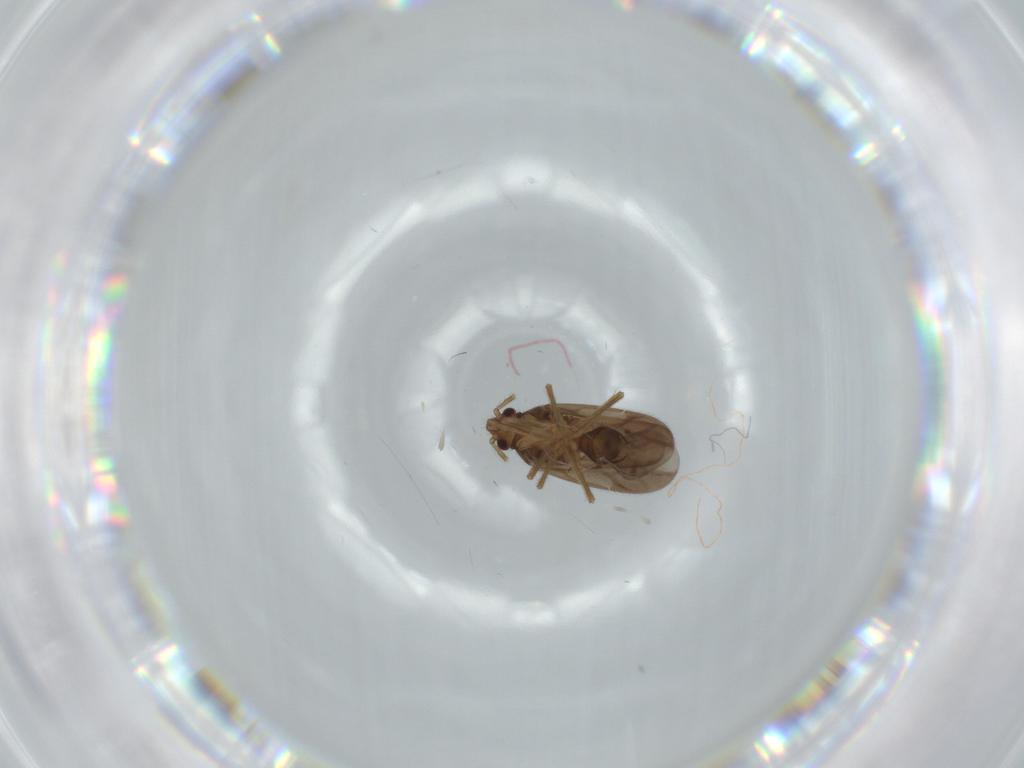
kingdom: Animalia
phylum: Arthropoda
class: Insecta
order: Hemiptera
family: Ceratocombidae
